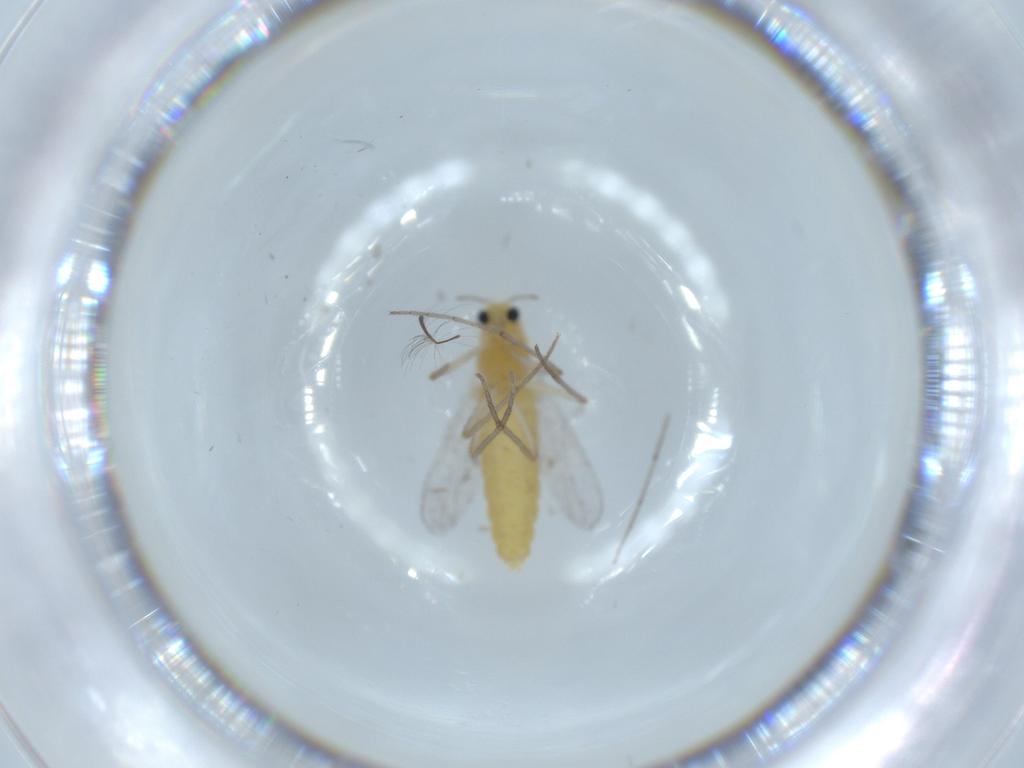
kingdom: Animalia
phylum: Arthropoda
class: Insecta
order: Diptera
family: Chironomidae
